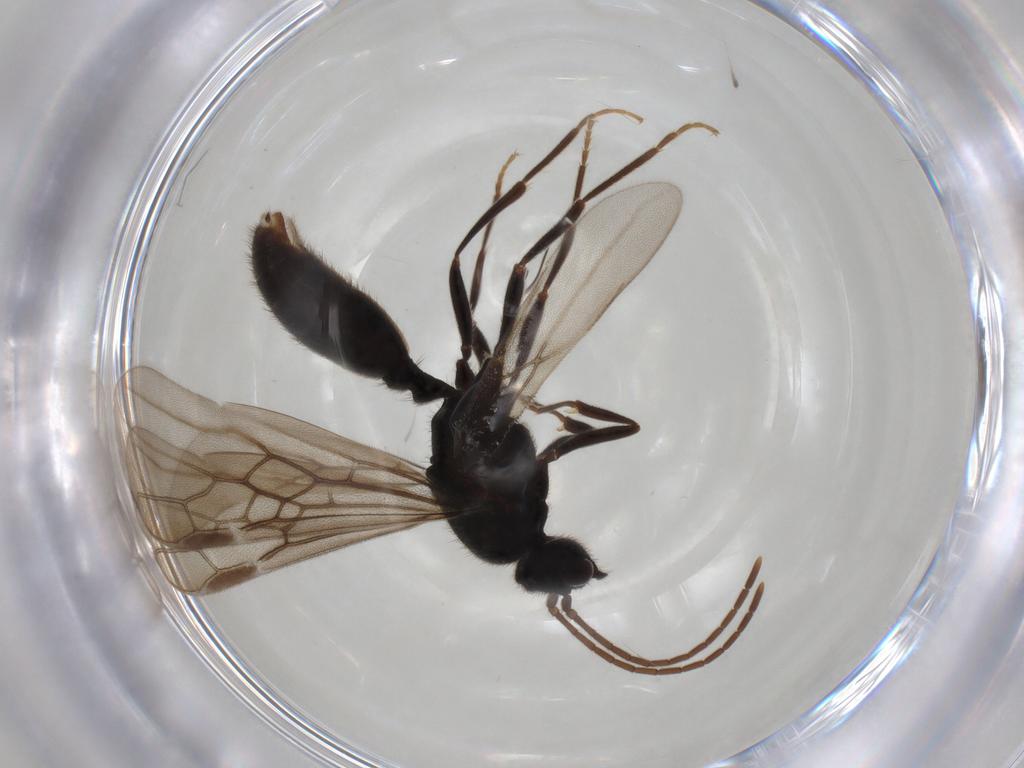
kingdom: Animalia
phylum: Arthropoda
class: Insecta
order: Hymenoptera
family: Formicidae
